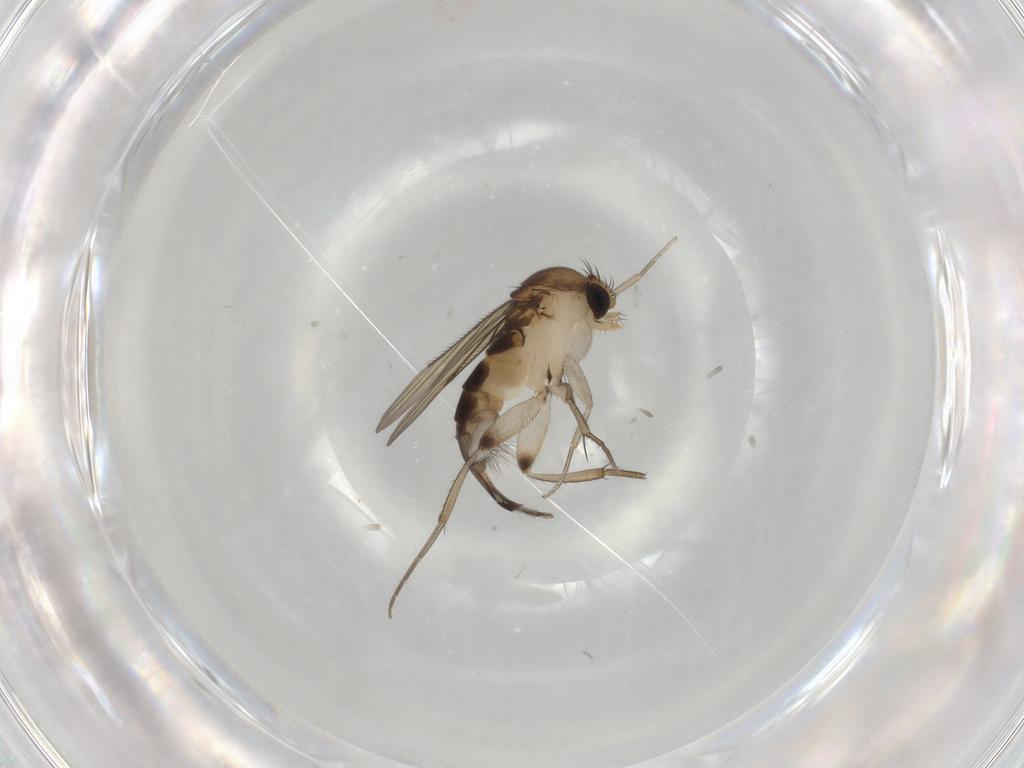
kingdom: Animalia
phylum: Arthropoda
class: Insecta
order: Diptera
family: Phoridae
